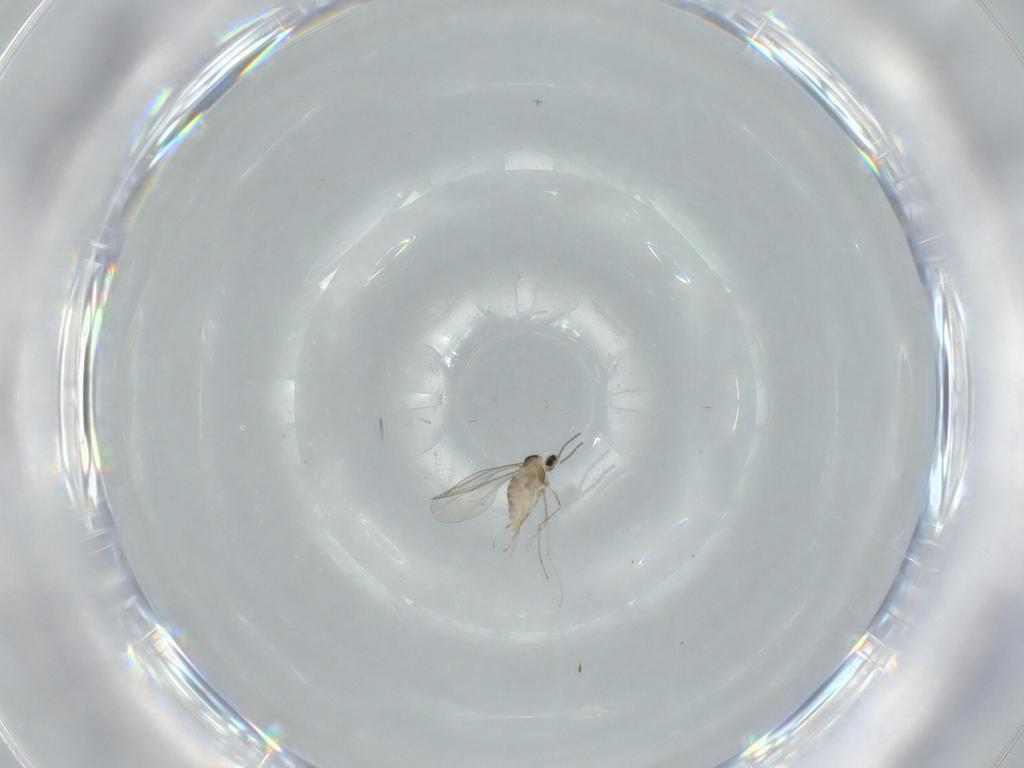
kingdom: Animalia
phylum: Arthropoda
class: Insecta
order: Diptera
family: Cecidomyiidae
